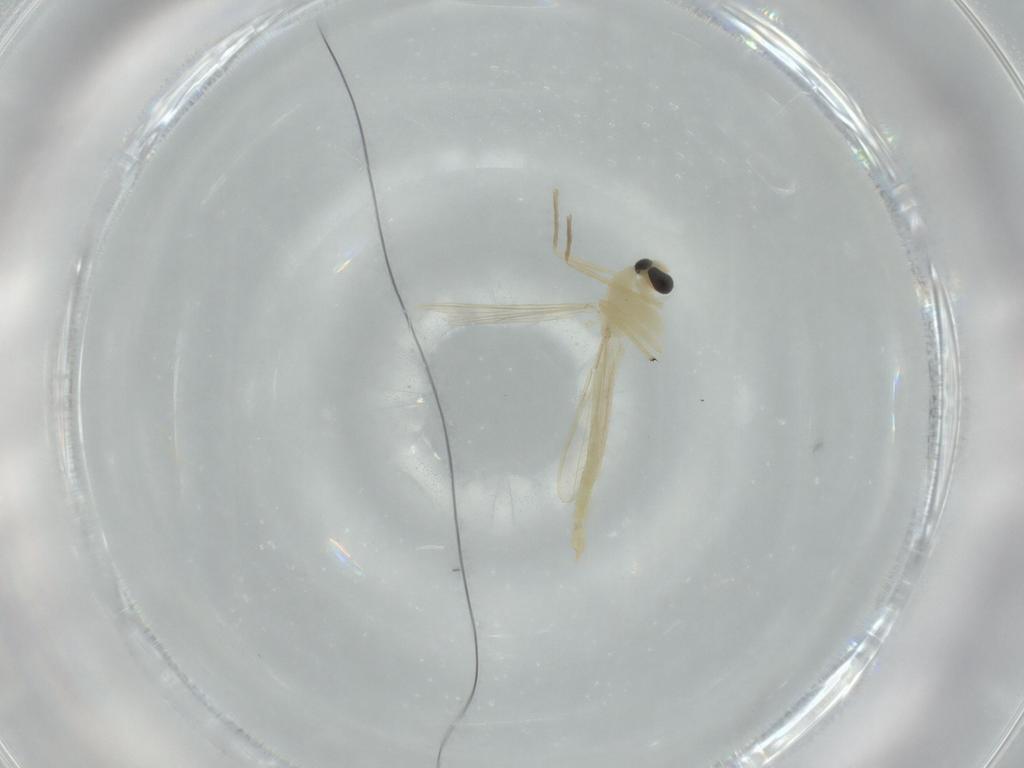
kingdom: Animalia
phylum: Arthropoda
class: Insecta
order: Diptera
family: Chironomidae
